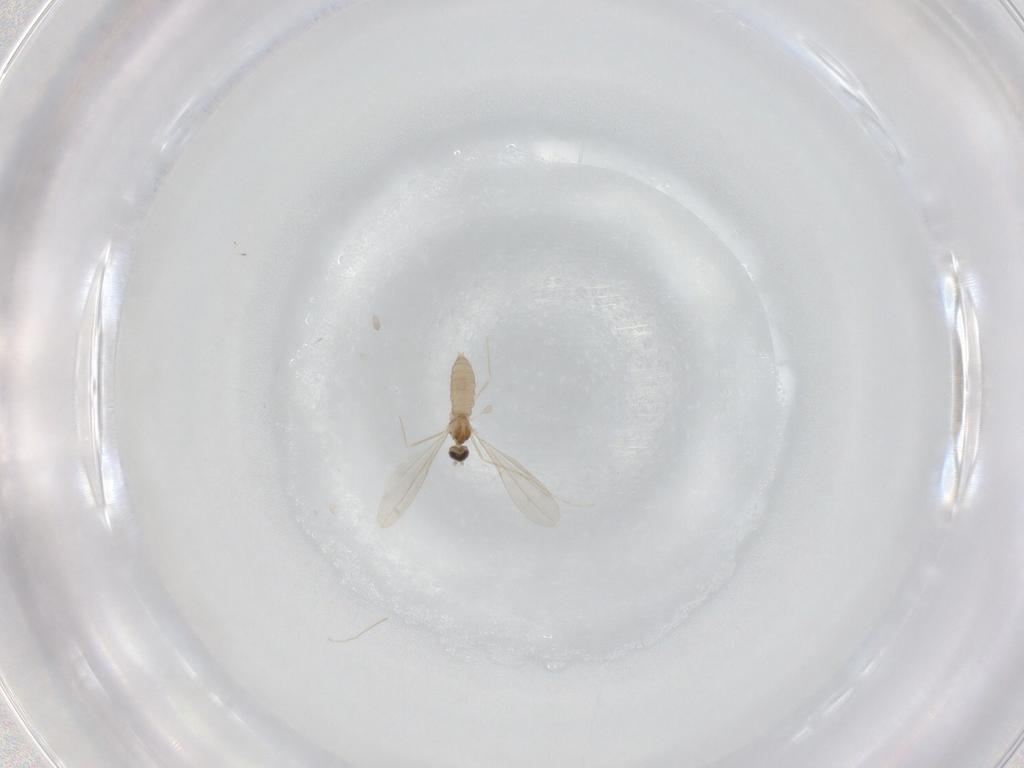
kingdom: Animalia
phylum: Arthropoda
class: Insecta
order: Diptera
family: Cecidomyiidae
